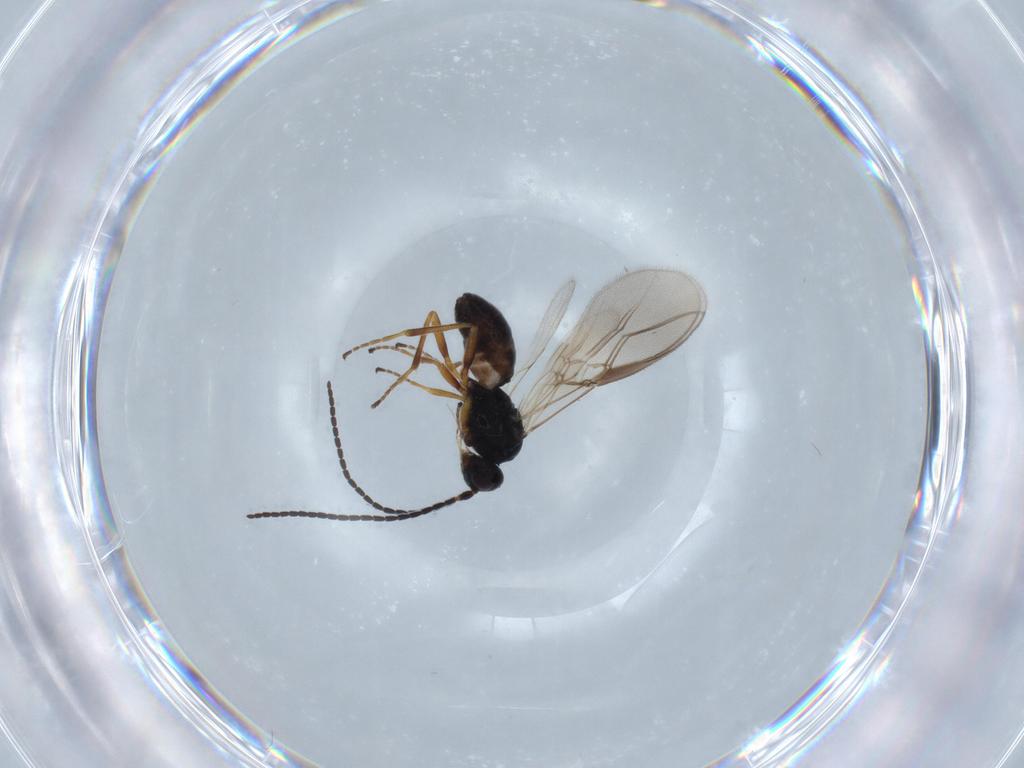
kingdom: Animalia
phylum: Arthropoda
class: Insecta
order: Hymenoptera
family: Braconidae
